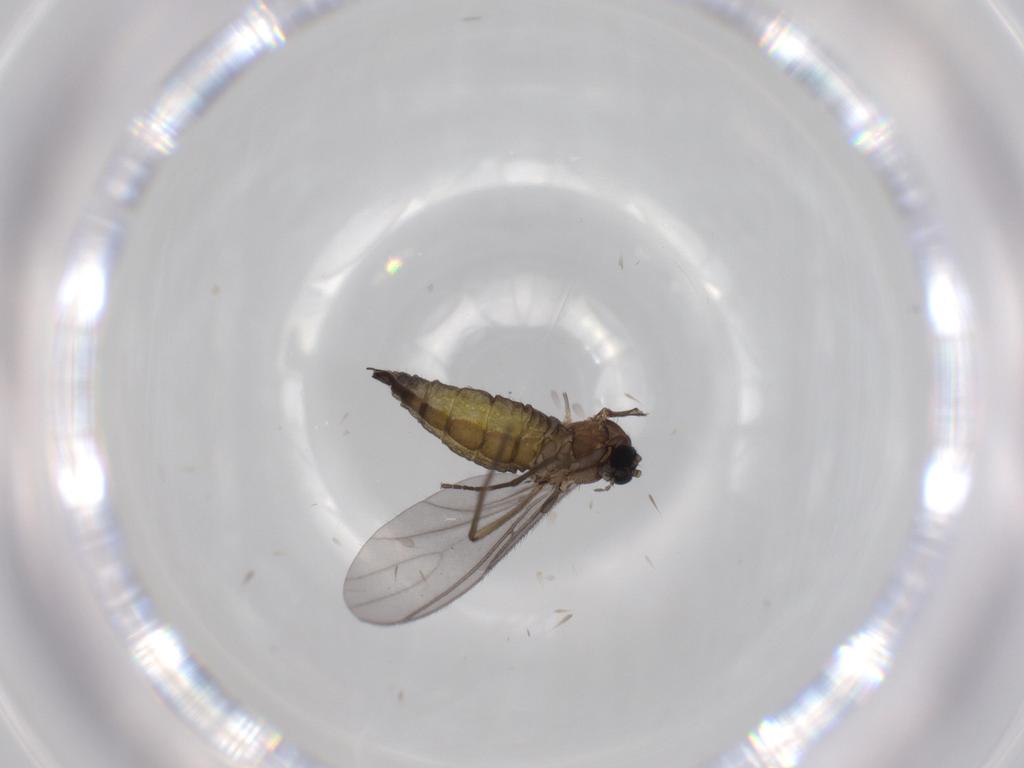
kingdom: Animalia
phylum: Arthropoda
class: Insecta
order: Diptera
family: Sciaridae
